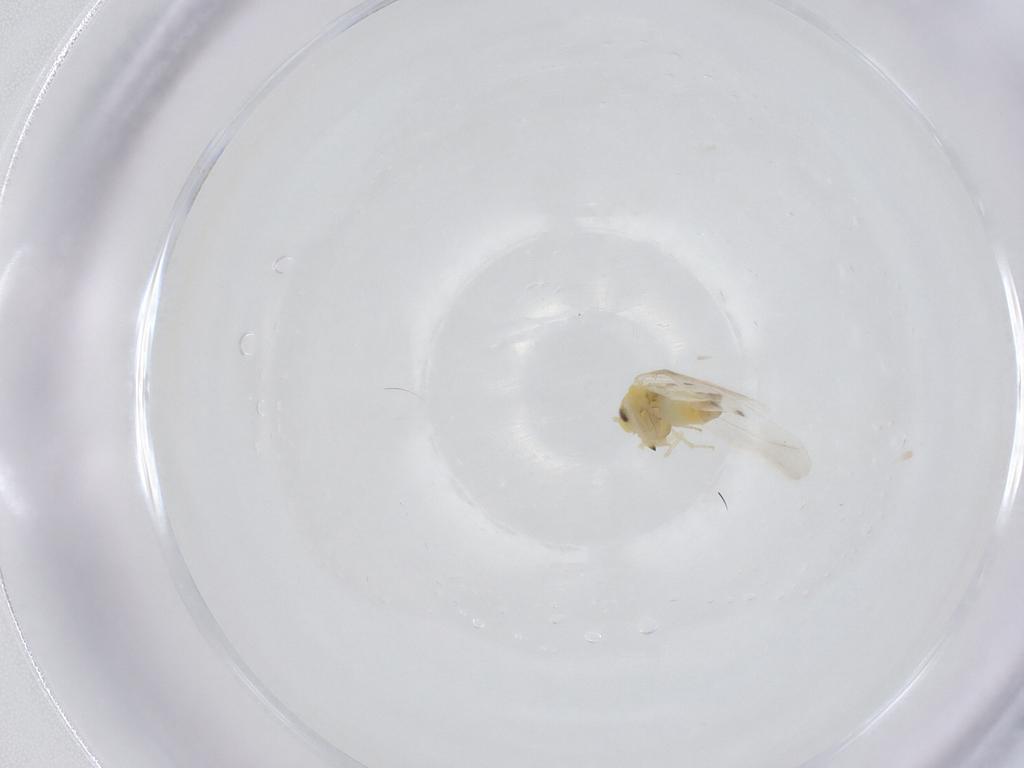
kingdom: Animalia
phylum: Arthropoda
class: Insecta
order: Hemiptera
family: Aleyrodidae
